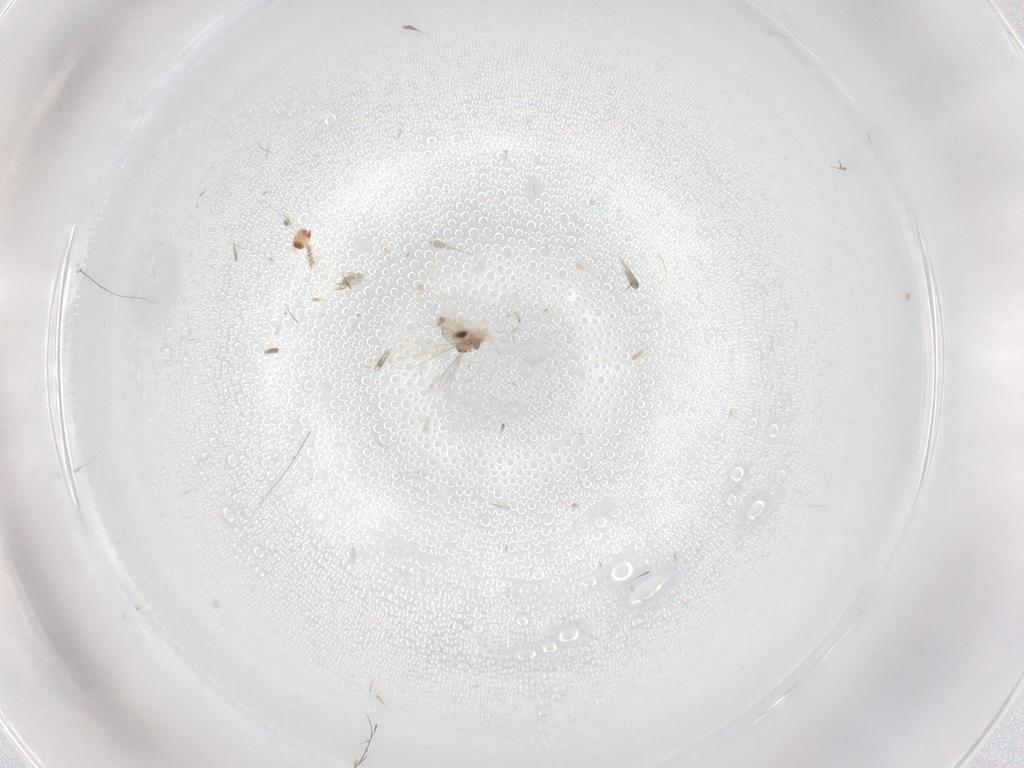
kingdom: Animalia
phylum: Arthropoda
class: Insecta
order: Diptera
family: Cecidomyiidae
